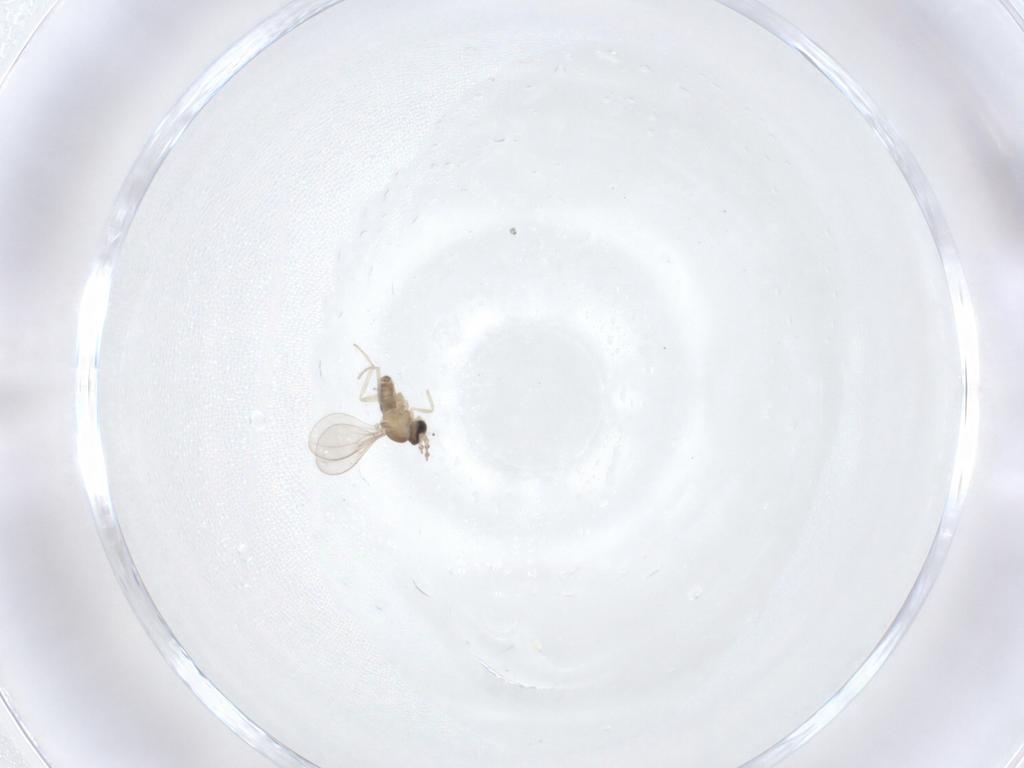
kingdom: Animalia
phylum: Arthropoda
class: Insecta
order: Diptera
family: Cecidomyiidae
